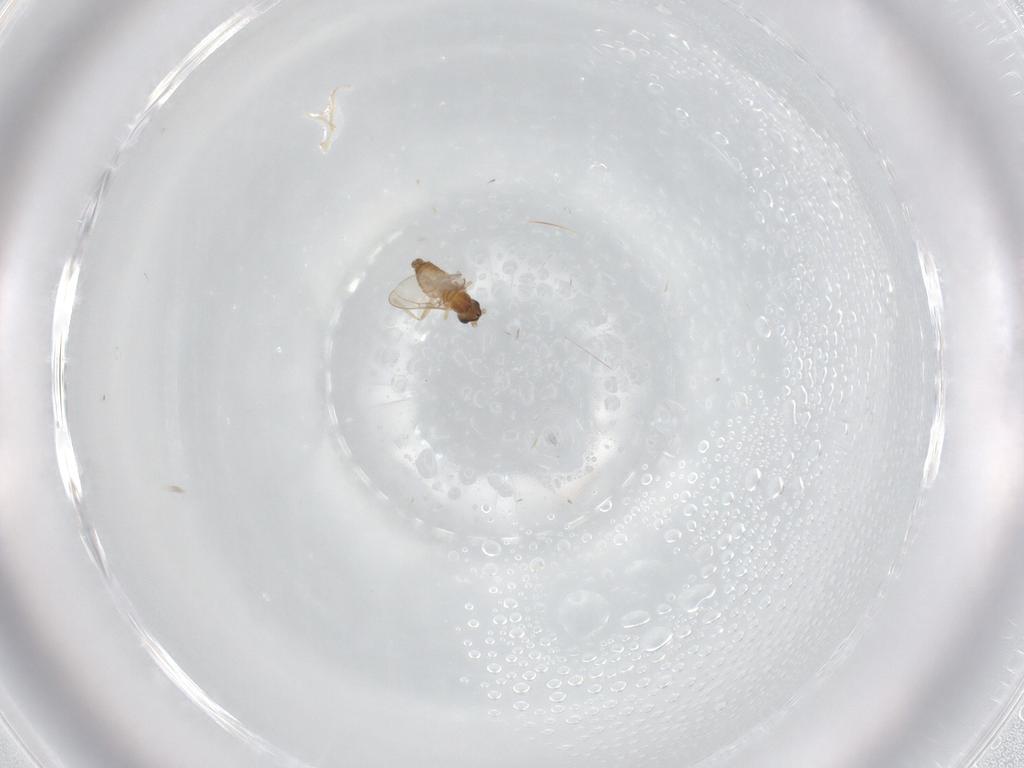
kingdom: Animalia
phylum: Arthropoda
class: Insecta
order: Diptera
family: Cecidomyiidae
